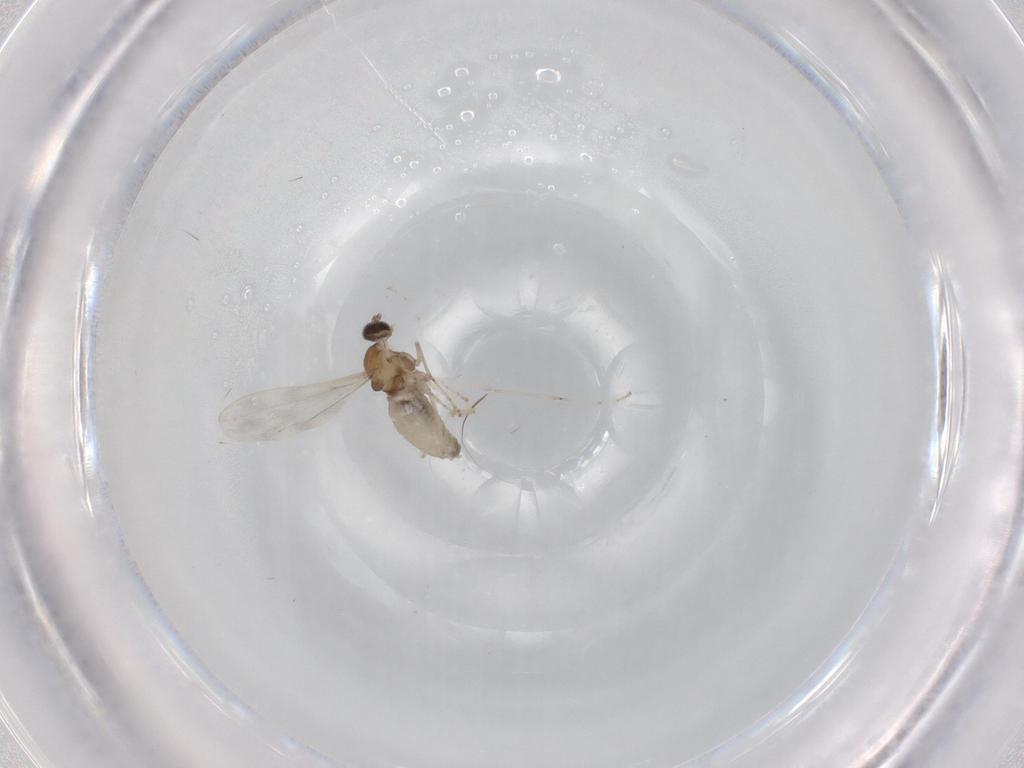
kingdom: Animalia
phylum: Arthropoda
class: Insecta
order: Diptera
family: Cecidomyiidae
